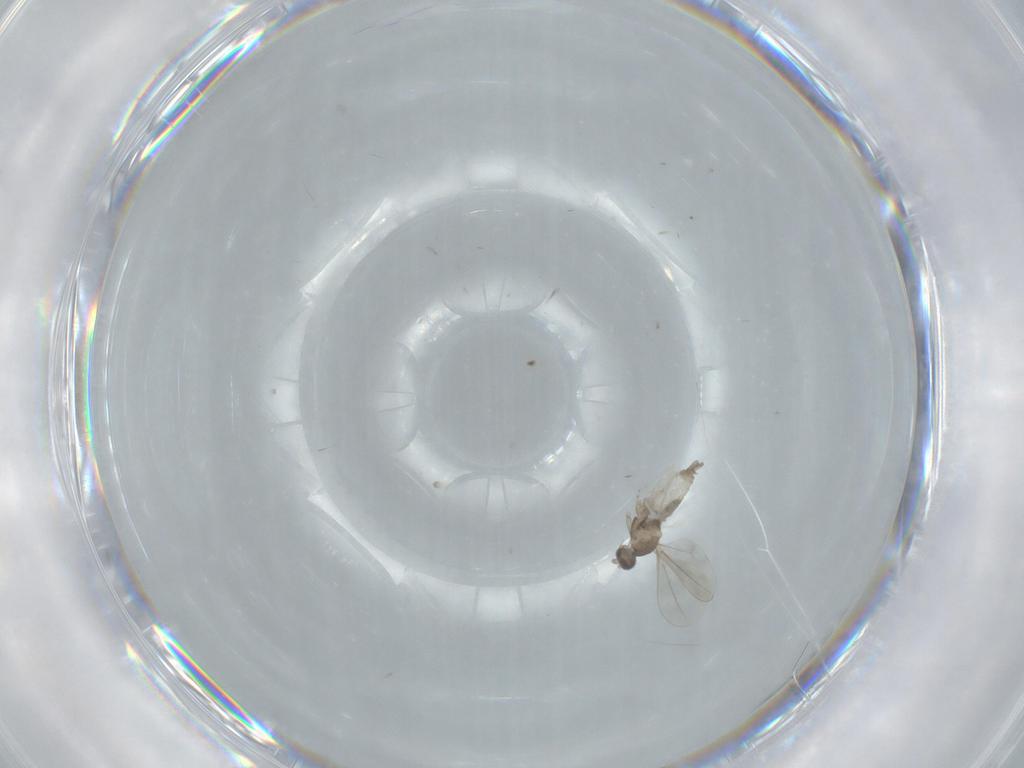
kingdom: Animalia
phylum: Arthropoda
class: Insecta
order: Diptera
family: Cecidomyiidae
